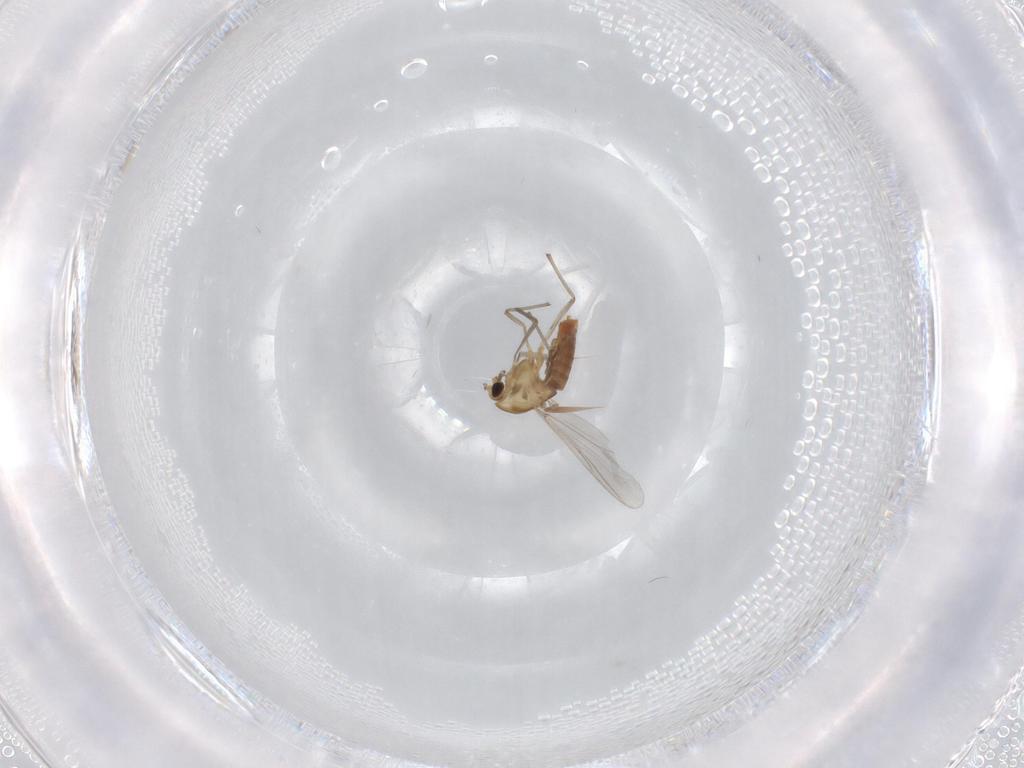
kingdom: Animalia
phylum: Arthropoda
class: Insecta
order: Diptera
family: Chironomidae
